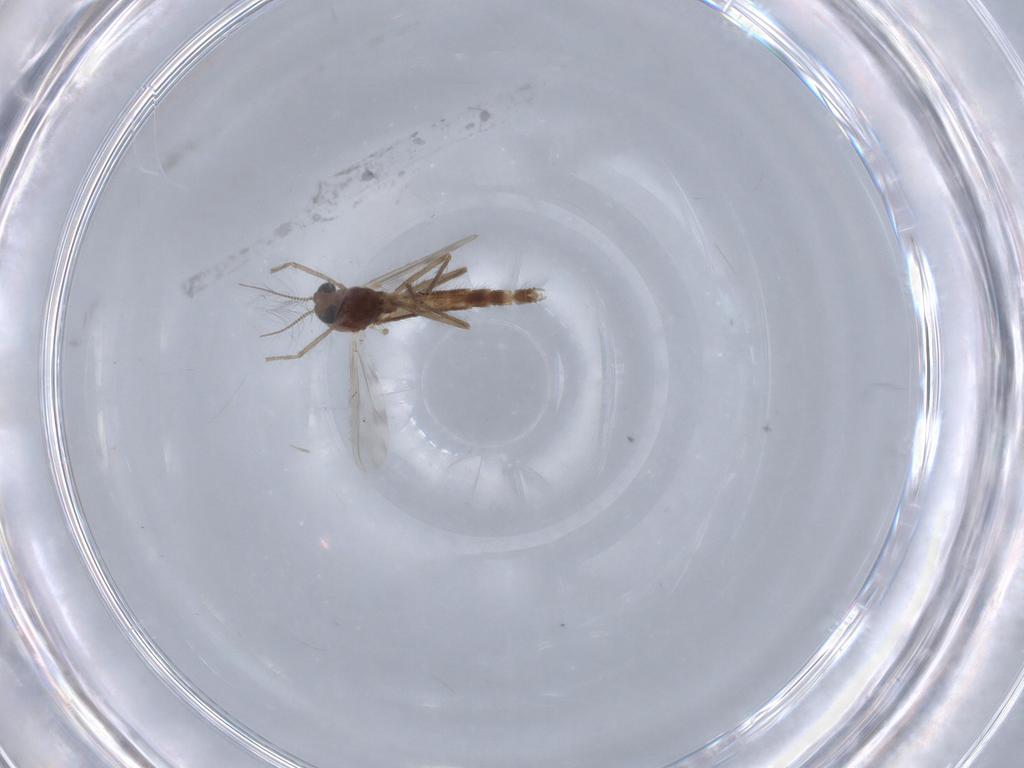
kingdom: Animalia
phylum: Arthropoda
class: Insecta
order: Diptera
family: Chironomidae
